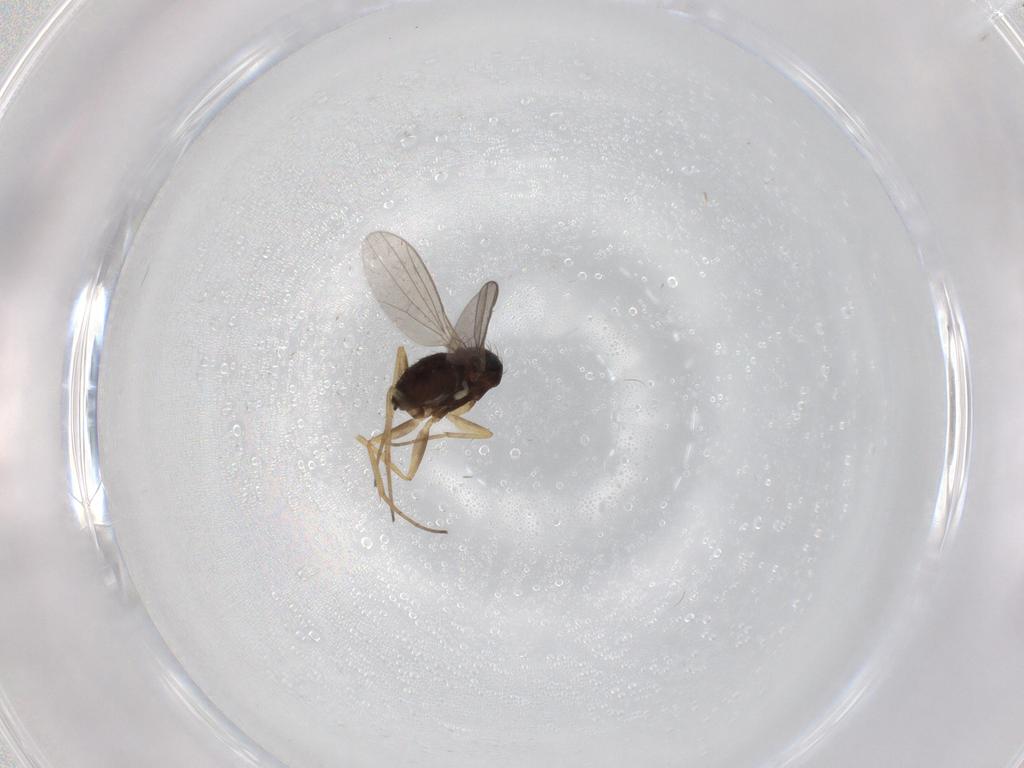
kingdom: Animalia
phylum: Arthropoda
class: Insecta
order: Diptera
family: Dolichopodidae
